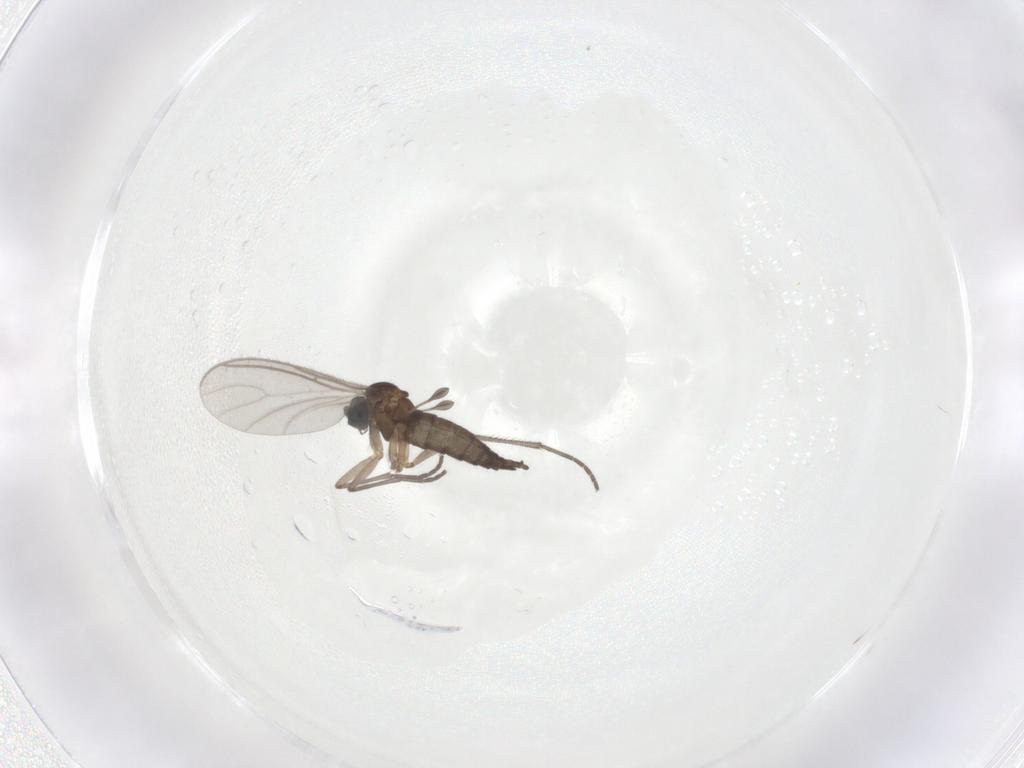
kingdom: Animalia
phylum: Arthropoda
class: Insecta
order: Diptera
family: Sciaridae
